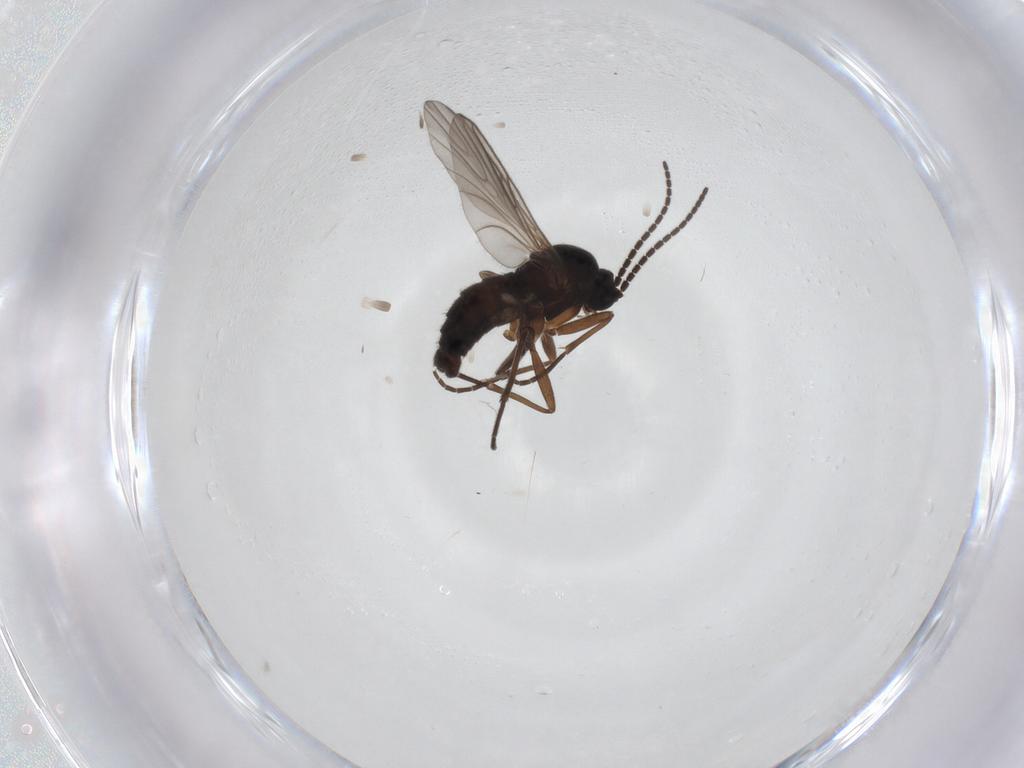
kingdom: Animalia
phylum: Arthropoda
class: Insecta
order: Diptera
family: Sciaridae
